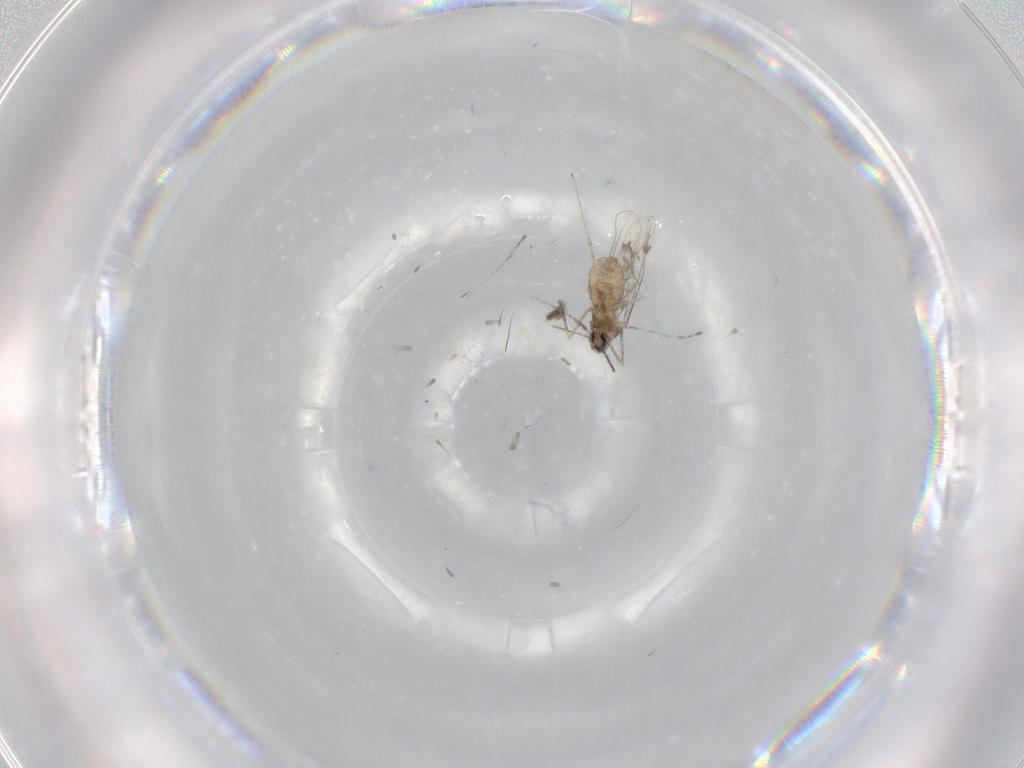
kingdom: Animalia
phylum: Arthropoda
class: Insecta
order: Diptera
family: Cecidomyiidae
